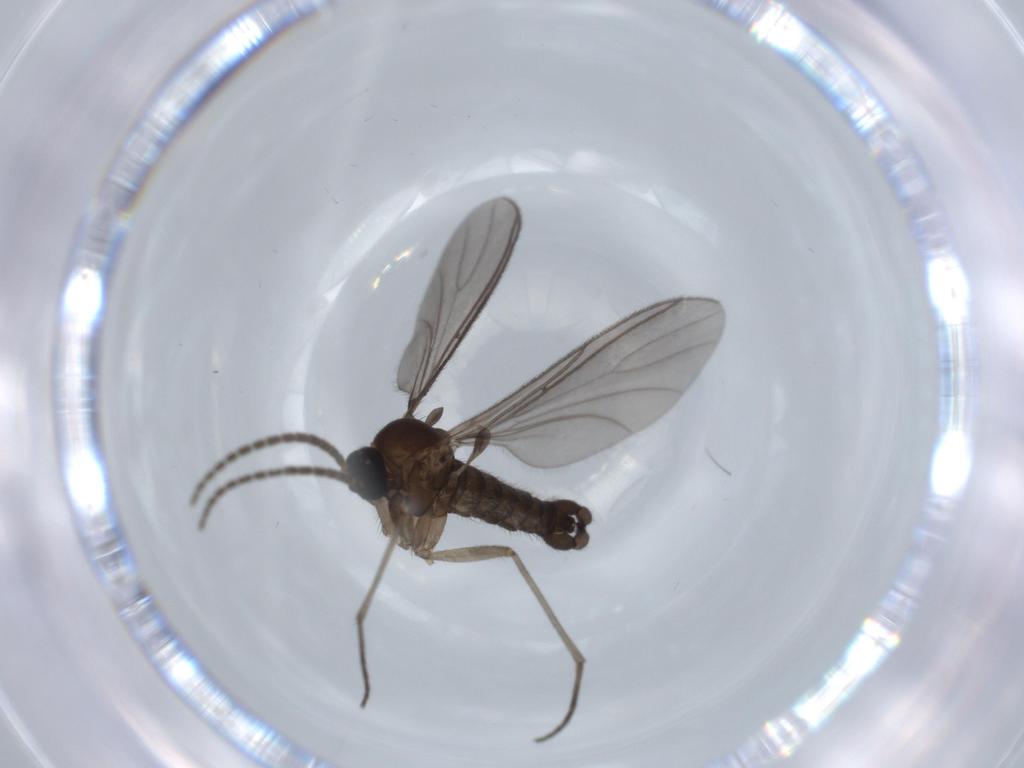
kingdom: Animalia
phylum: Arthropoda
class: Insecta
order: Diptera
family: Sciaridae
